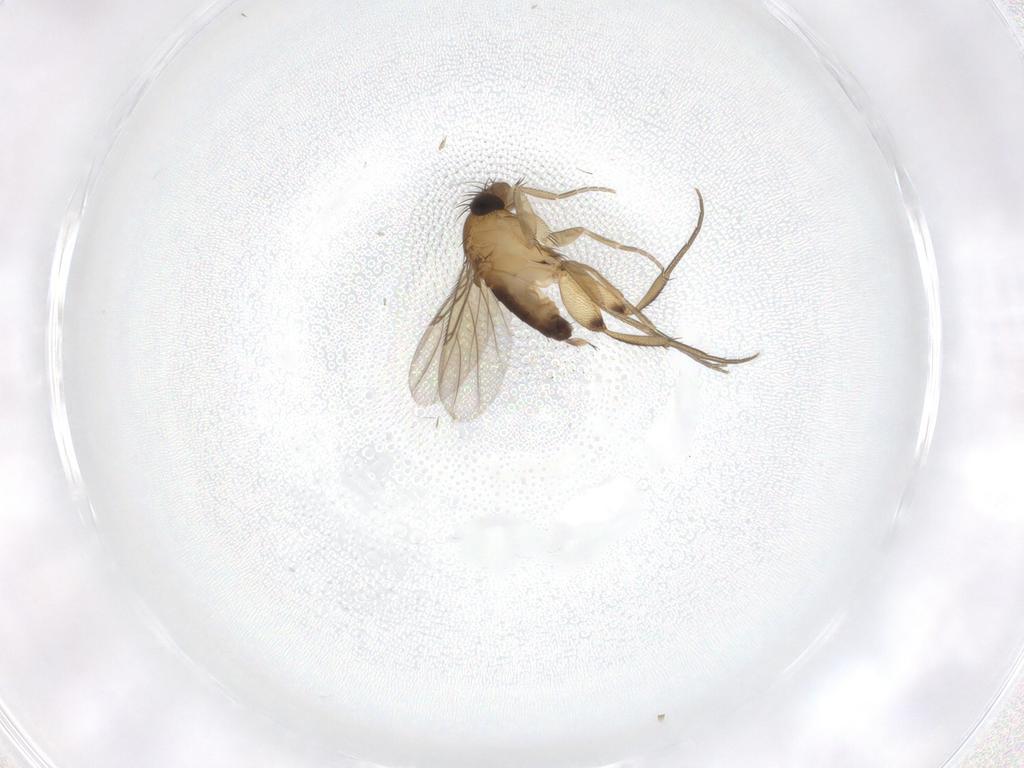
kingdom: Animalia
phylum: Arthropoda
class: Insecta
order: Diptera
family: Phoridae
